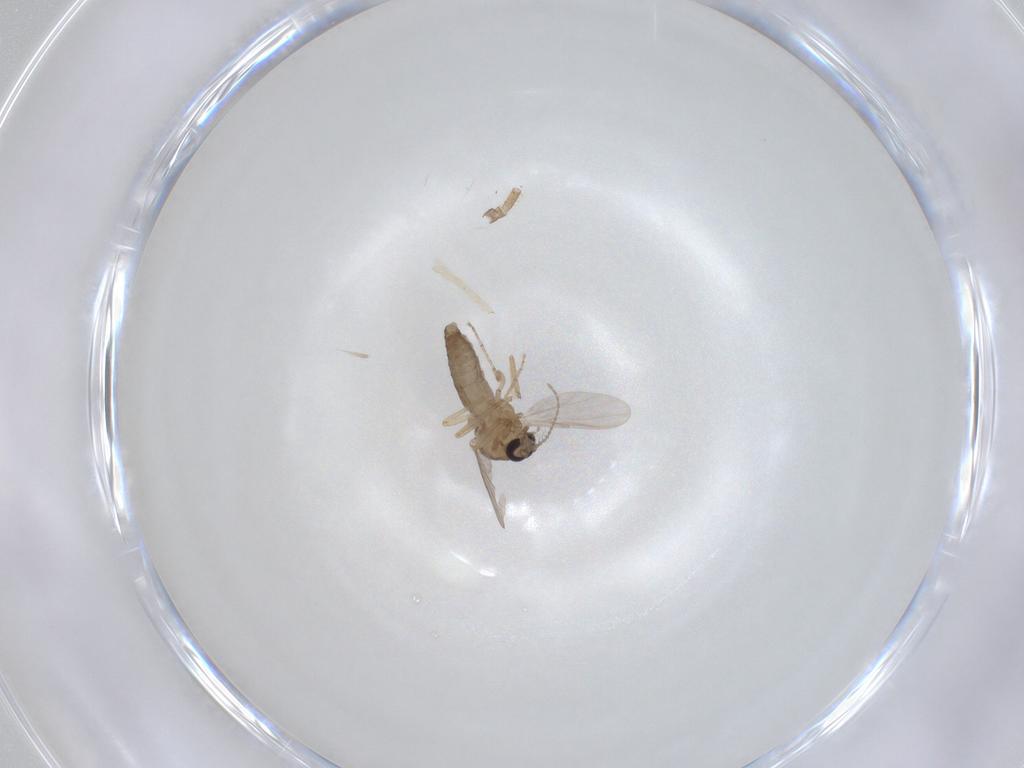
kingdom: Animalia
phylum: Arthropoda
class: Insecta
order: Diptera
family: Ceratopogonidae
